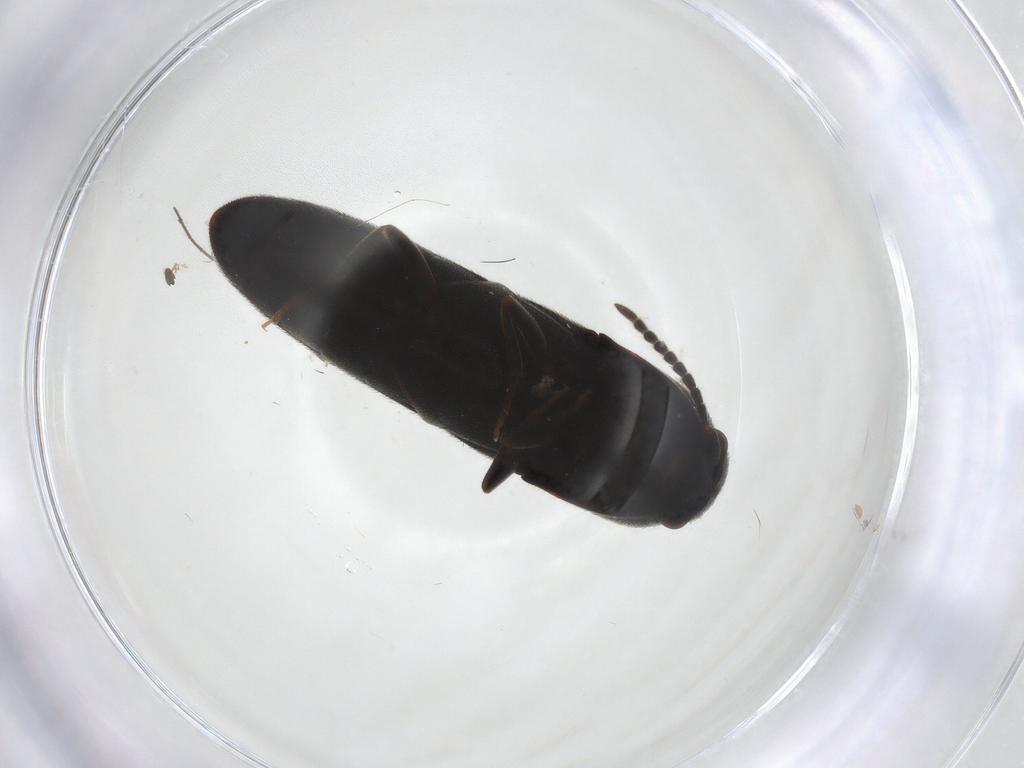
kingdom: Animalia
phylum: Arthropoda
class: Insecta
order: Coleoptera
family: Eucnemidae
